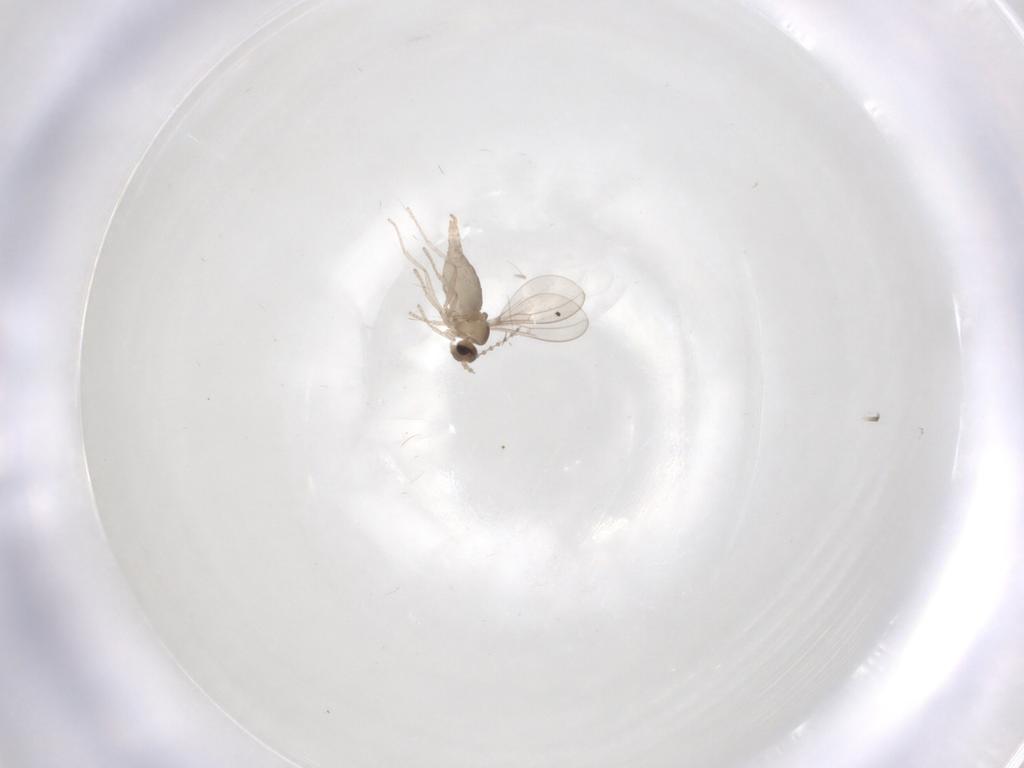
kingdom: Animalia
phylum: Arthropoda
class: Insecta
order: Diptera
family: Cecidomyiidae
